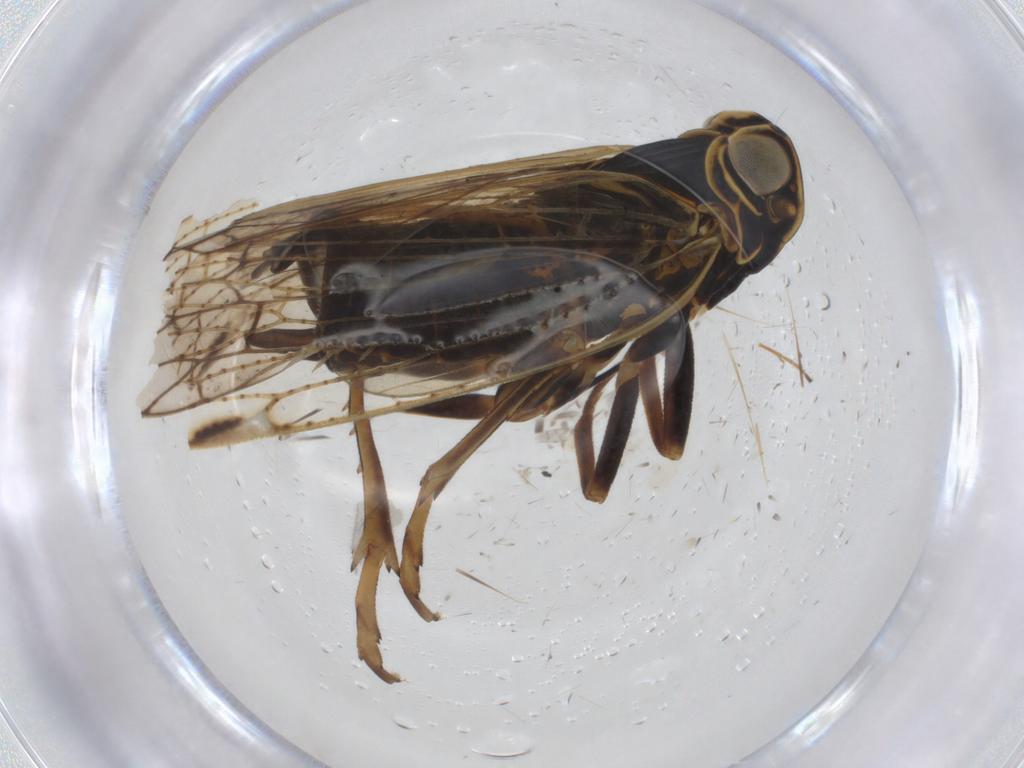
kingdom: Animalia
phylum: Arthropoda
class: Insecta
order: Hemiptera
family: Cixiidae
